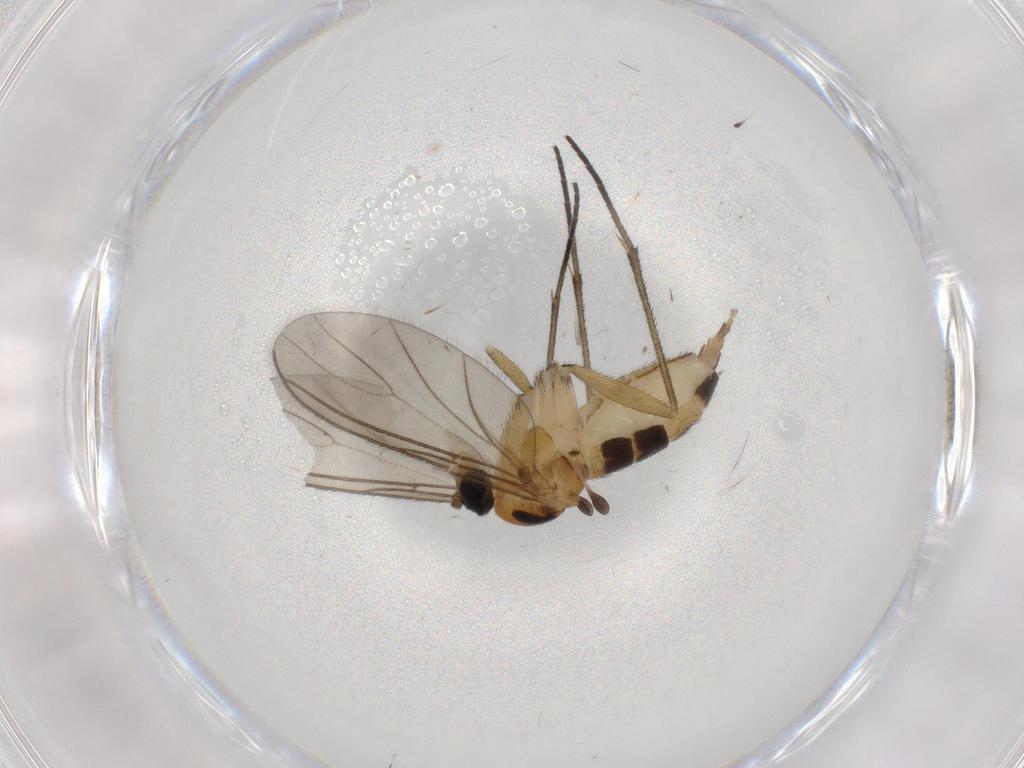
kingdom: Animalia
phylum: Arthropoda
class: Insecta
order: Diptera
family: Sciaridae
